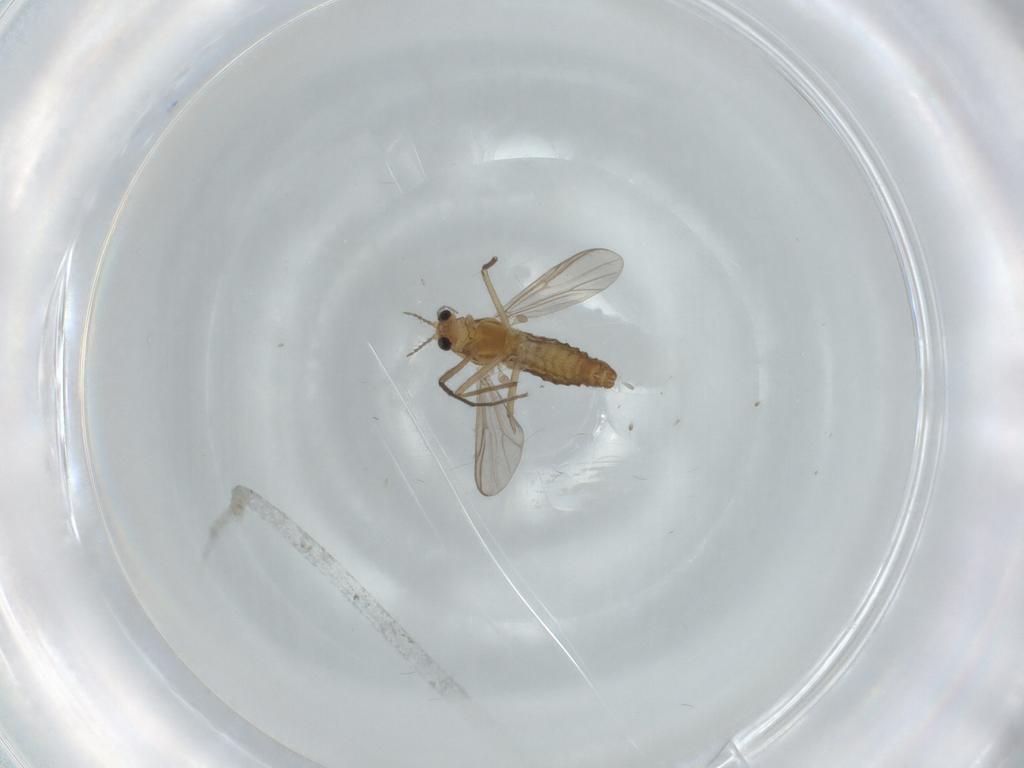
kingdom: Animalia
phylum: Arthropoda
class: Insecta
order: Diptera
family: Chironomidae
